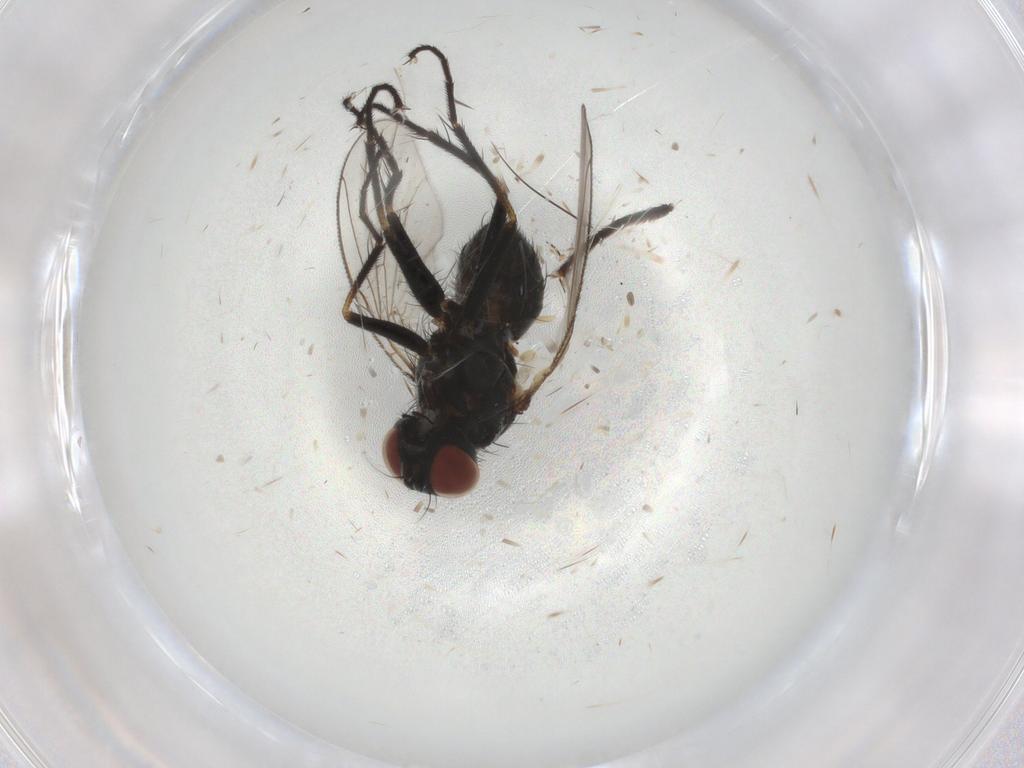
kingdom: Animalia
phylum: Arthropoda
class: Insecta
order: Diptera
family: Muscidae
